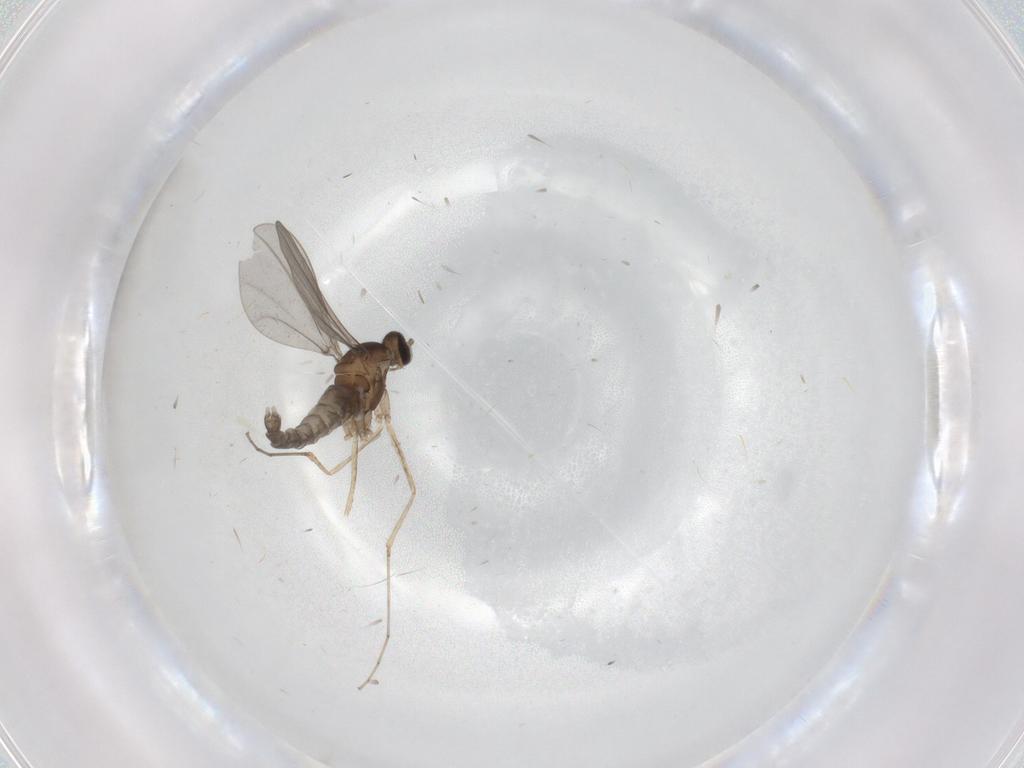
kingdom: Animalia
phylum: Arthropoda
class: Insecta
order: Diptera
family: Cecidomyiidae
